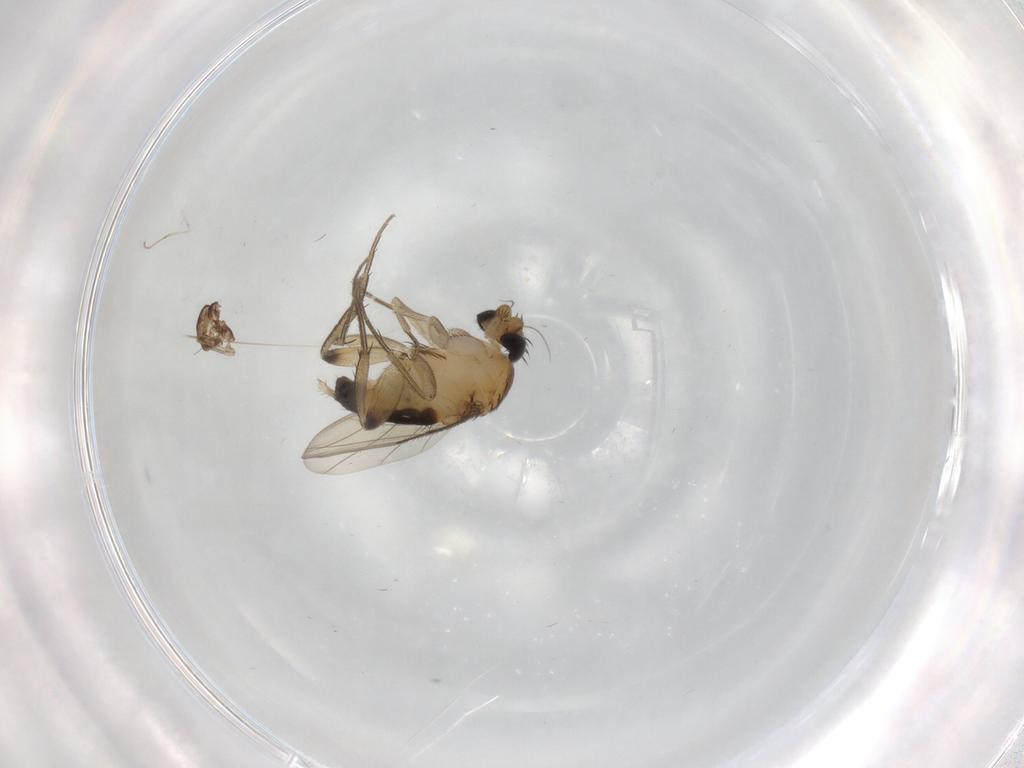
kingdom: Animalia
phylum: Arthropoda
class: Insecta
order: Diptera
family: Phoridae
